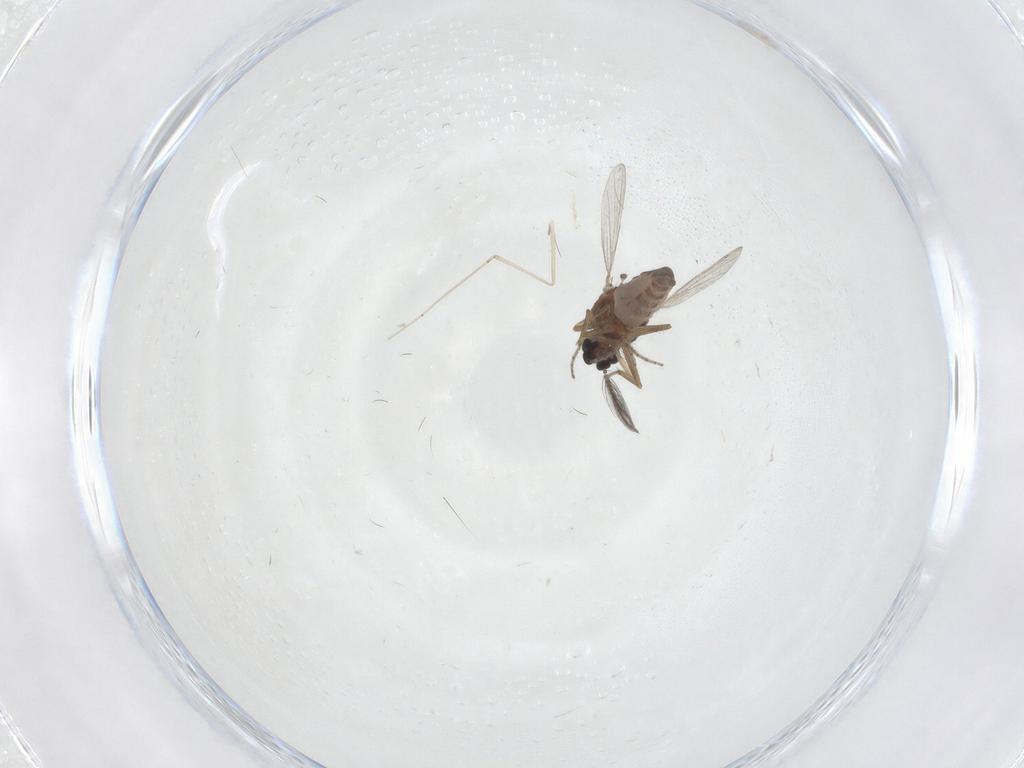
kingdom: Animalia
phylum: Arthropoda
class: Insecta
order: Diptera
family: Cecidomyiidae
